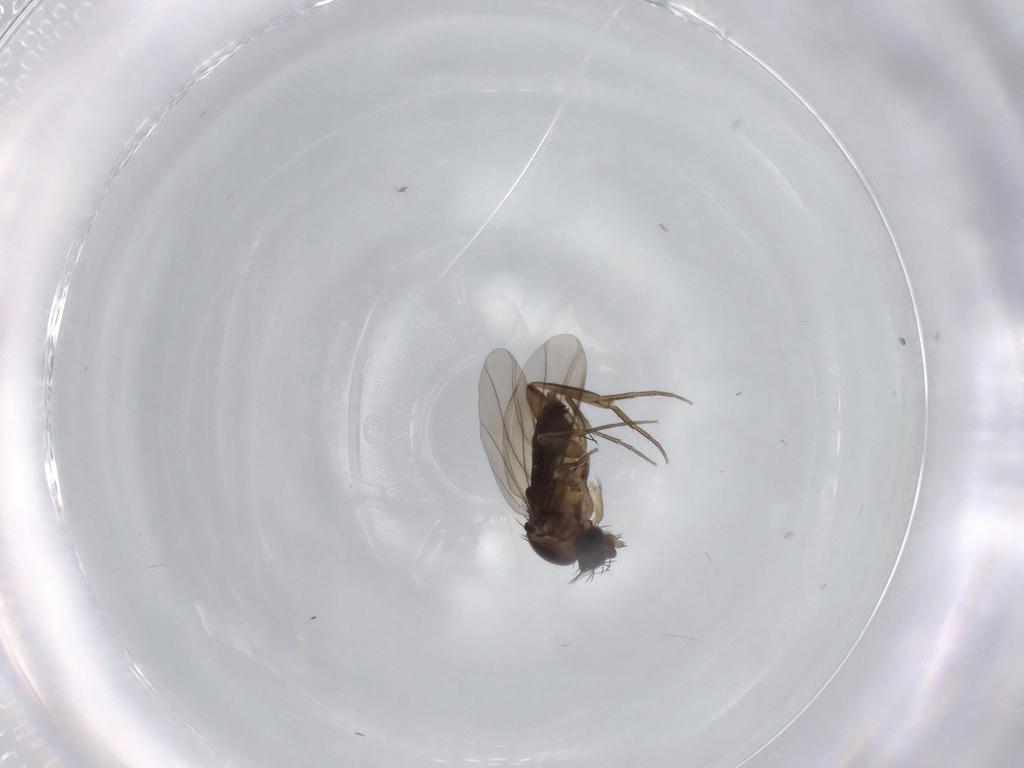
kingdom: Animalia
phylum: Arthropoda
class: Insecta
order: Diptera
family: Phoridae
